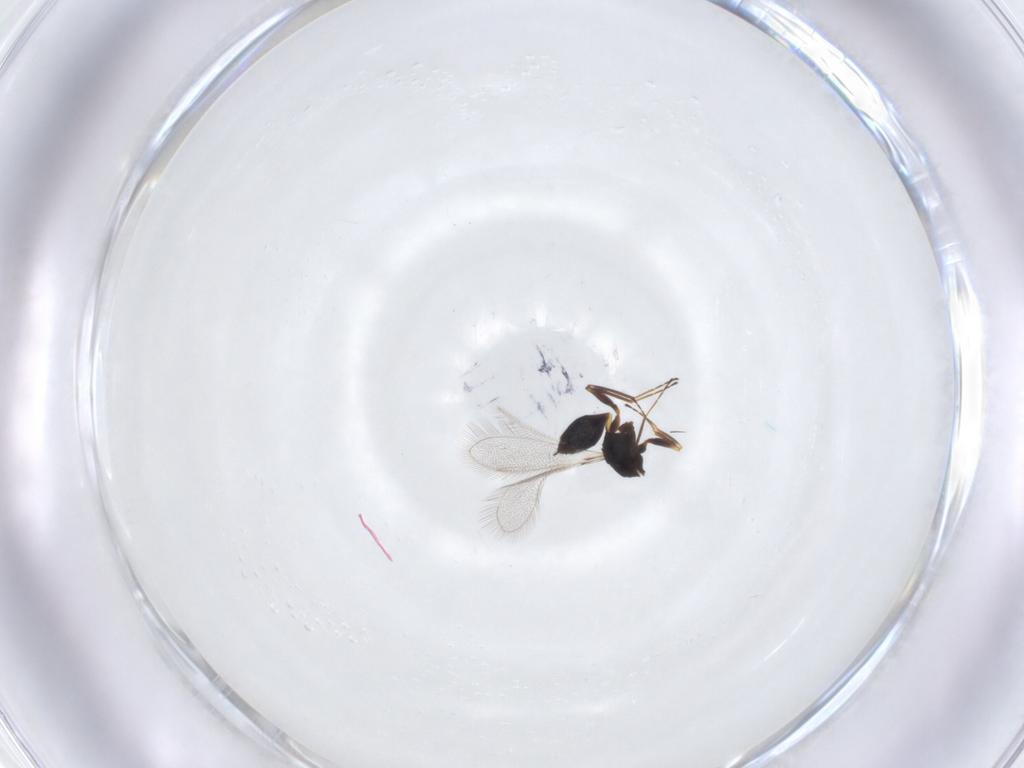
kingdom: Animalia
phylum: Arthropoda
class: Insecta
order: Hymenoptera
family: Mymaridae
